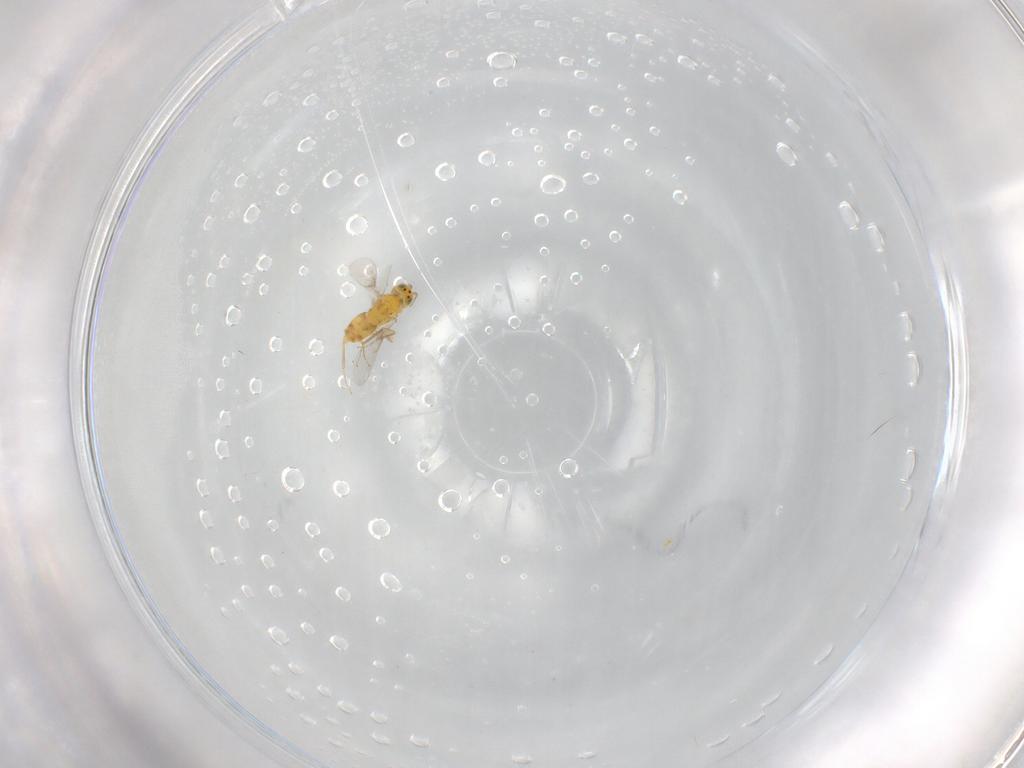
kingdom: Animalia
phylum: Arthropoda
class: Insecta
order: Hymenoptera
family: Aphelinidae
